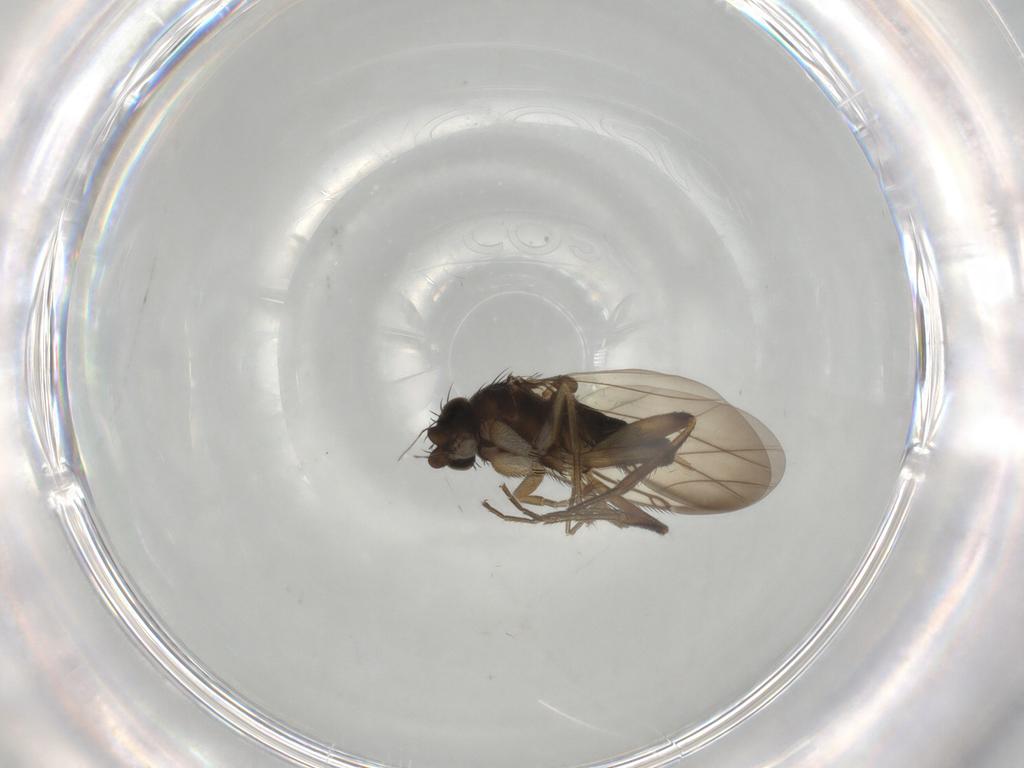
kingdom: Animalia
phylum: Arthropoda
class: Insecta
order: Diptera
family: Phoridae
